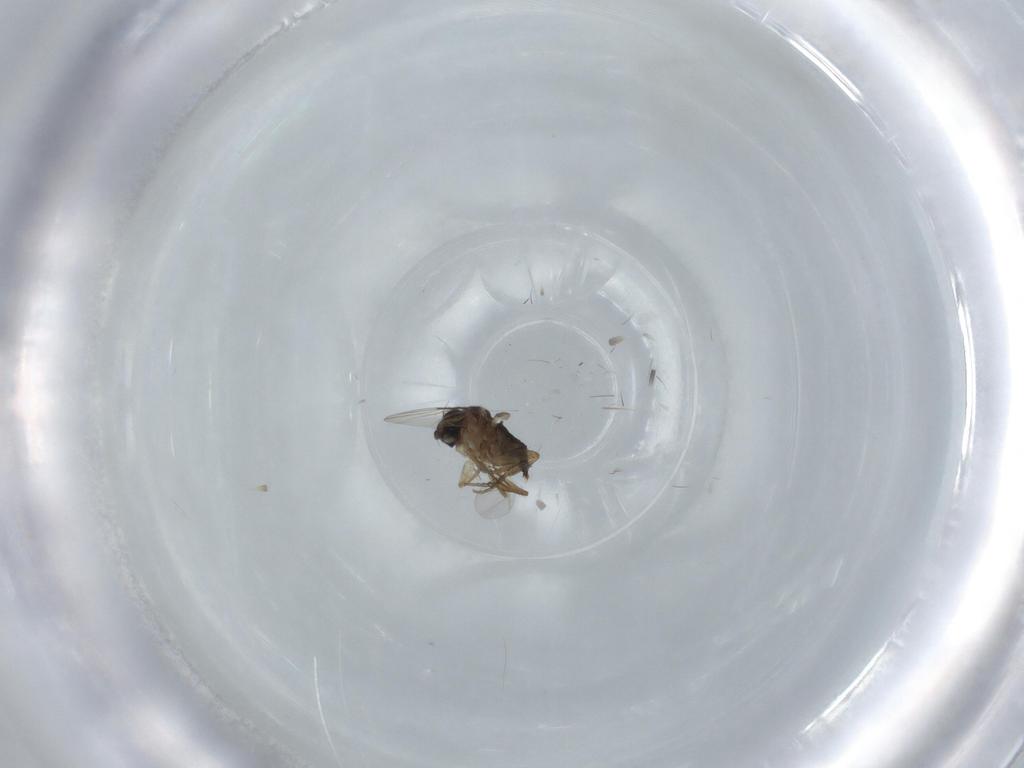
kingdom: Animalia
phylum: Arthropoda
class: Insecta
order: Diptera
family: Phoridae
